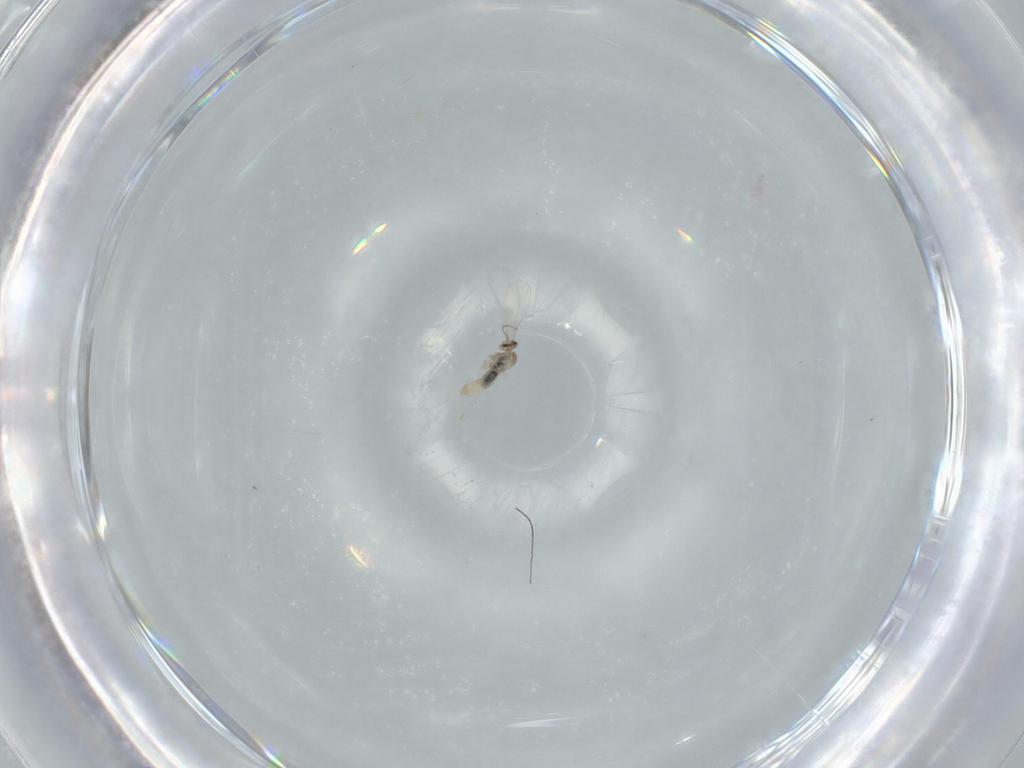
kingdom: Animalia
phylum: Arthropoda
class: Insecta
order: Diptera
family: Cecidomyiidae
